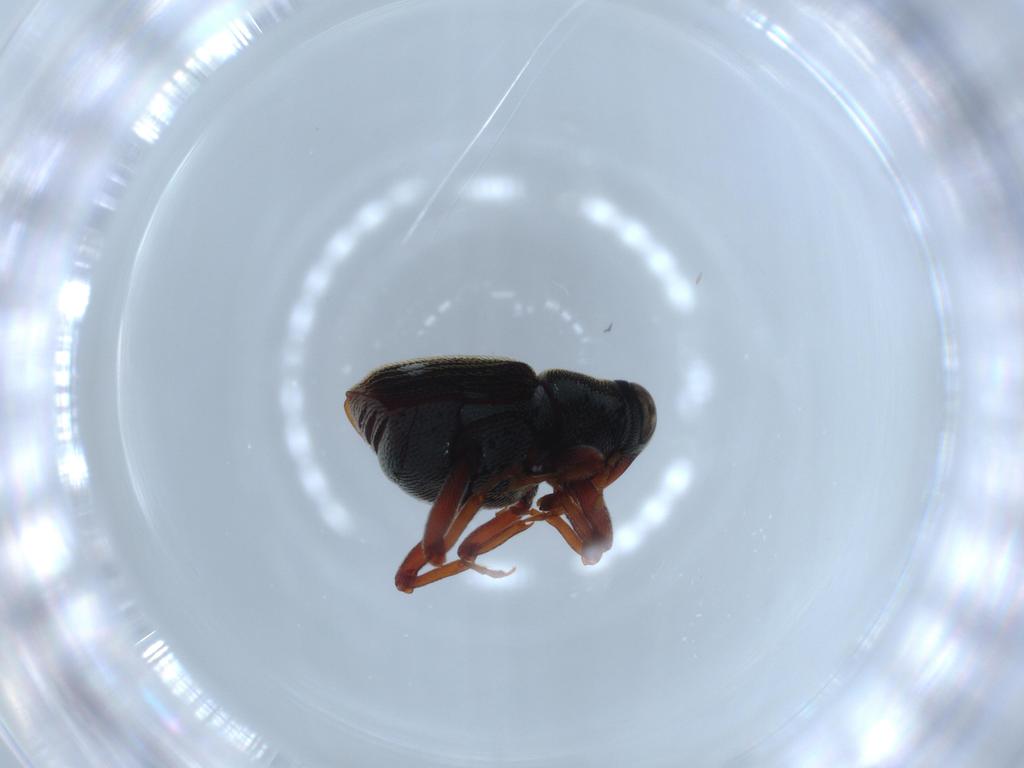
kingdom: Animalia
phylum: Arthropoda
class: Insecta
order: Coleoptera
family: Curculionidae
